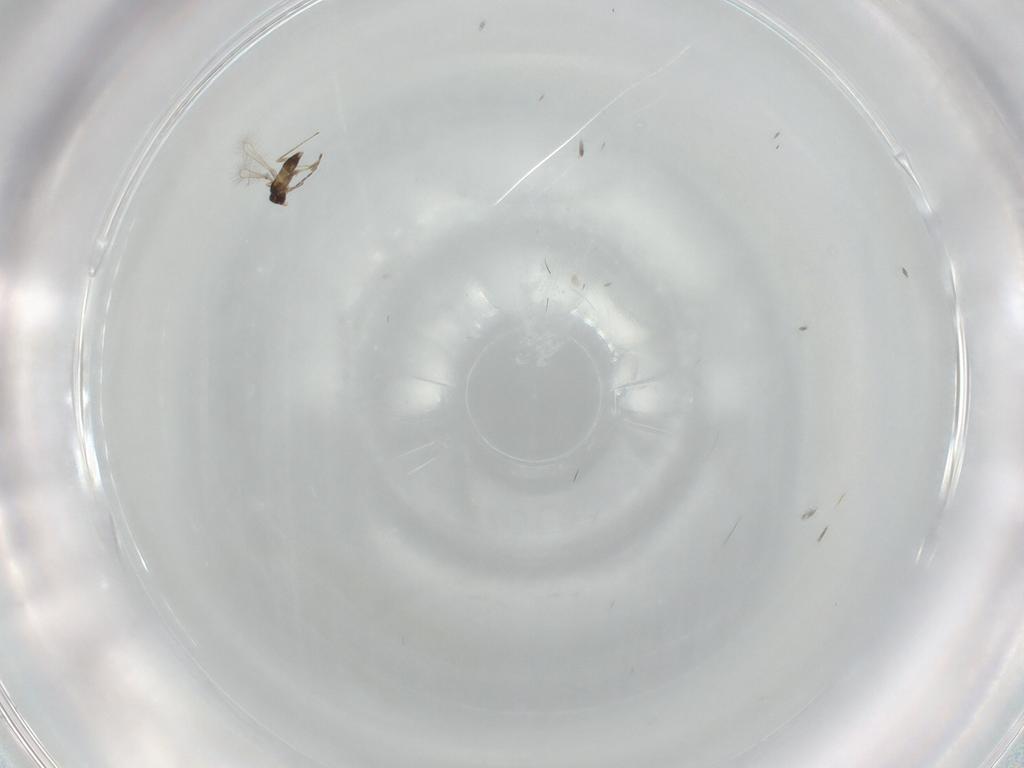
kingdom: Animalia
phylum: Arthropoda
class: Insecta
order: Hymenoptera
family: Mymaridae
